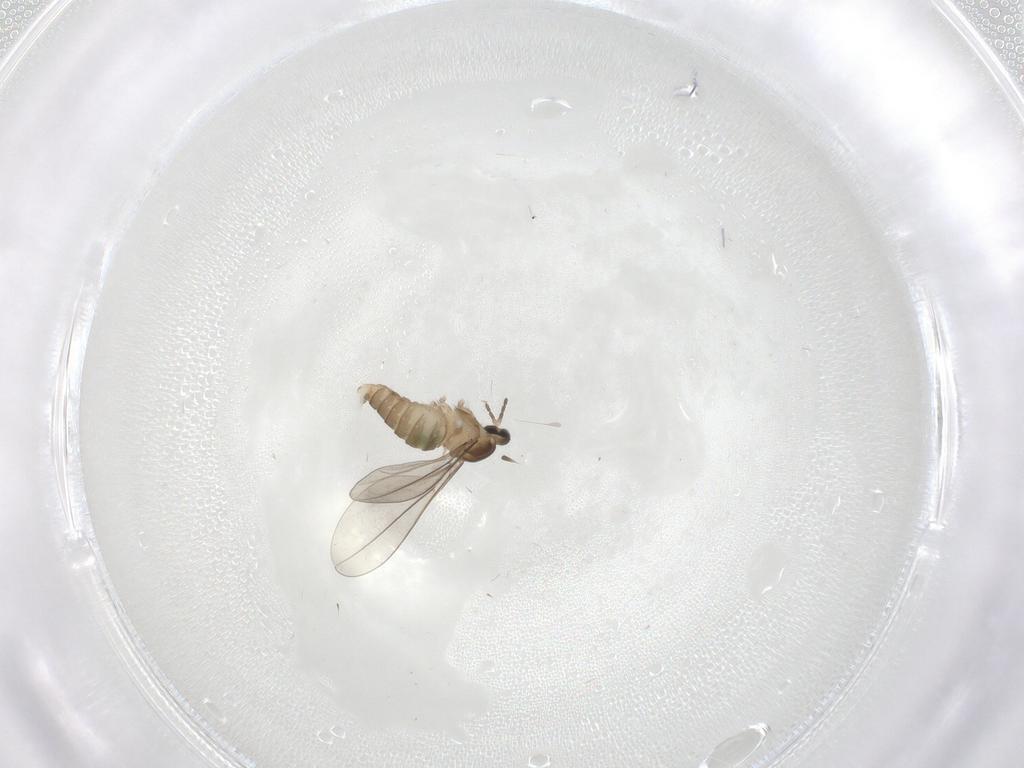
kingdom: Animalia
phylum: Arthropoda
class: Insecta
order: Diptera
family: Cecidomyiidae
